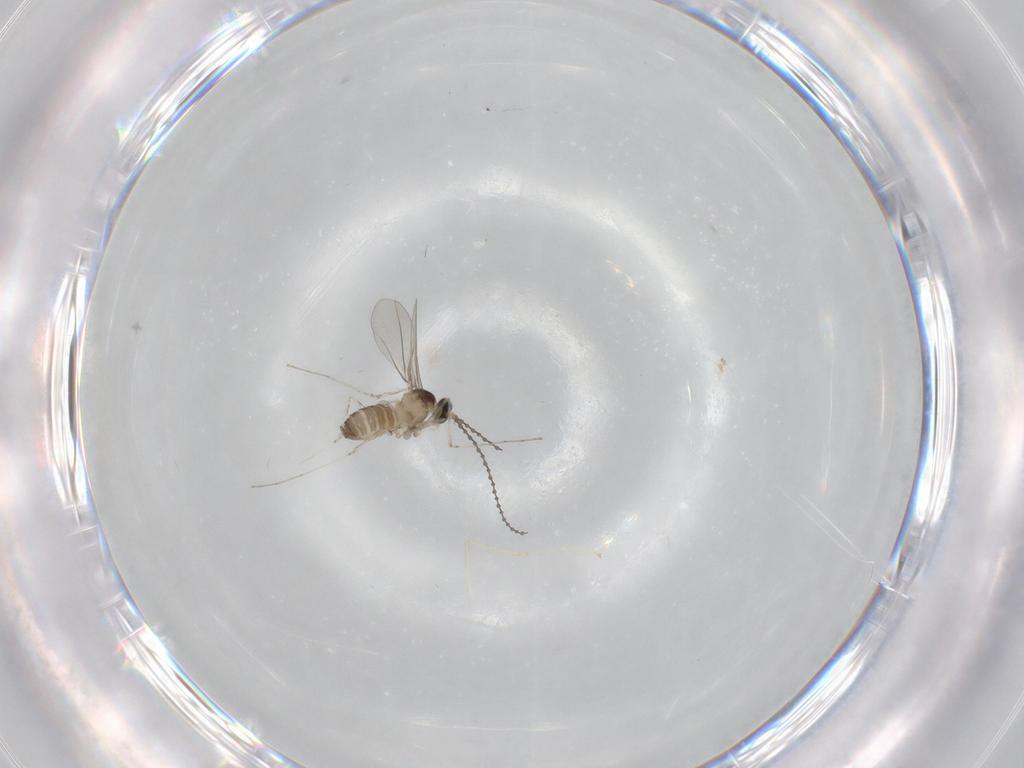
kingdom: Animalia
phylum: Arthropoda
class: Insecta
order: Diptera
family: Cecidomyiidae
